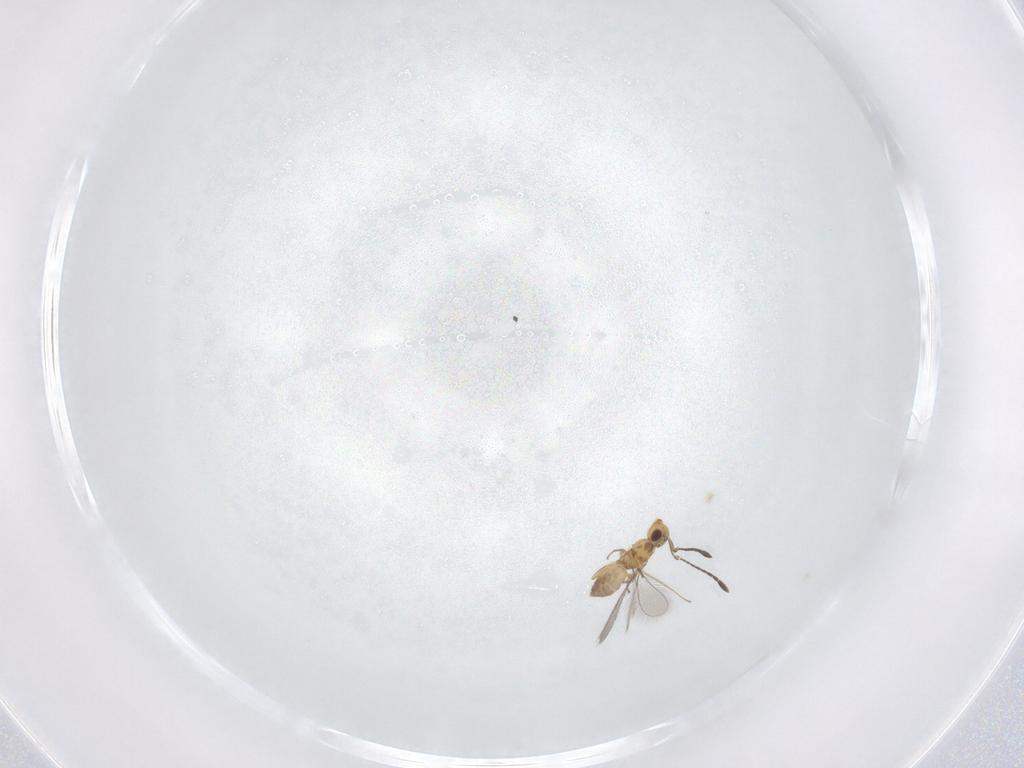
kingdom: Animalia
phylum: Arthropoda
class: Insecta
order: Hymenoptera
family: Mymaridae
